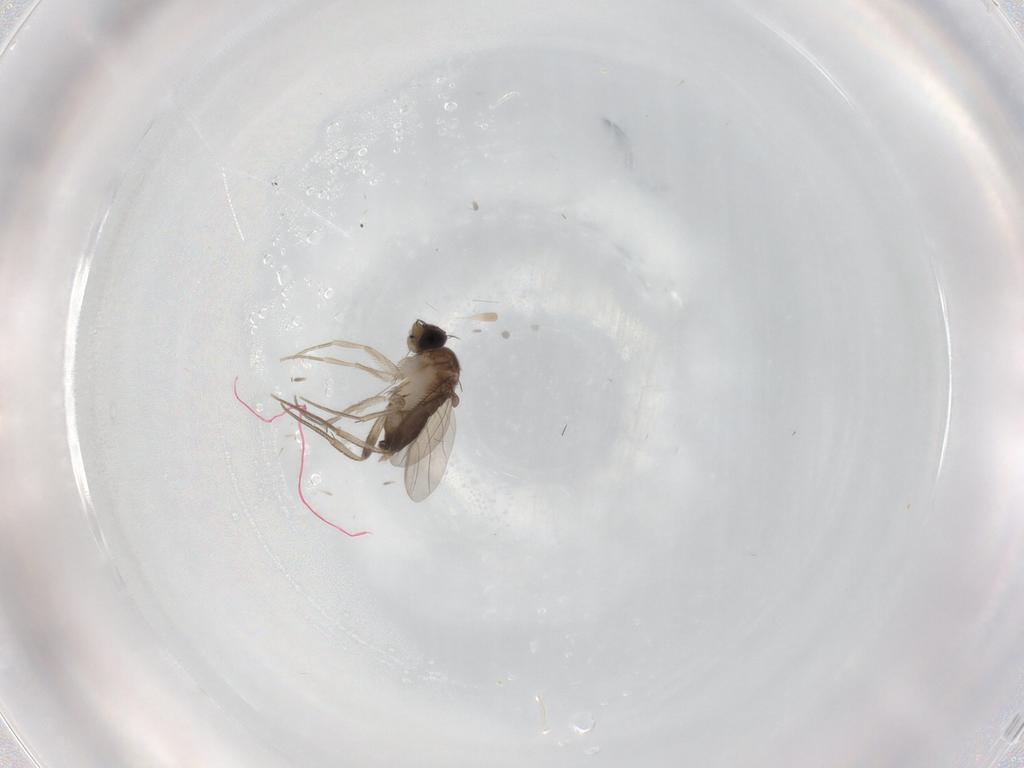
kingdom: Animalia
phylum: Arthropoda
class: Insecta
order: Diptera
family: Phoridae
